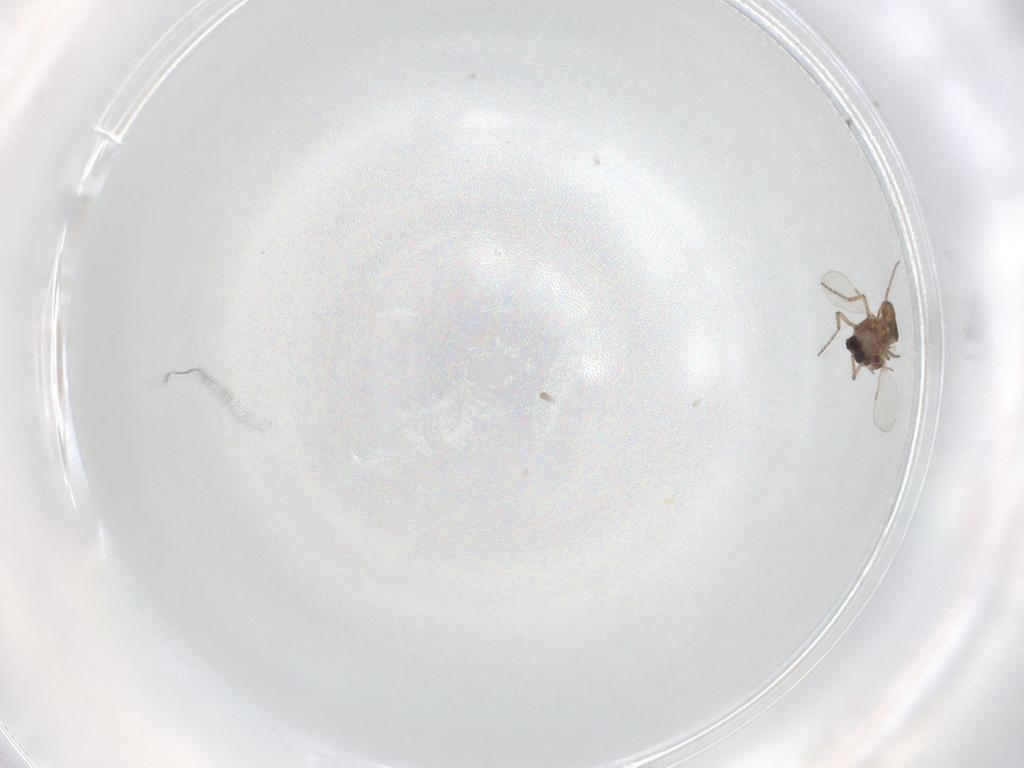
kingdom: Animalia
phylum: Arthropoda
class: Insecta
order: Diptera
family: Ceratopogonidae
